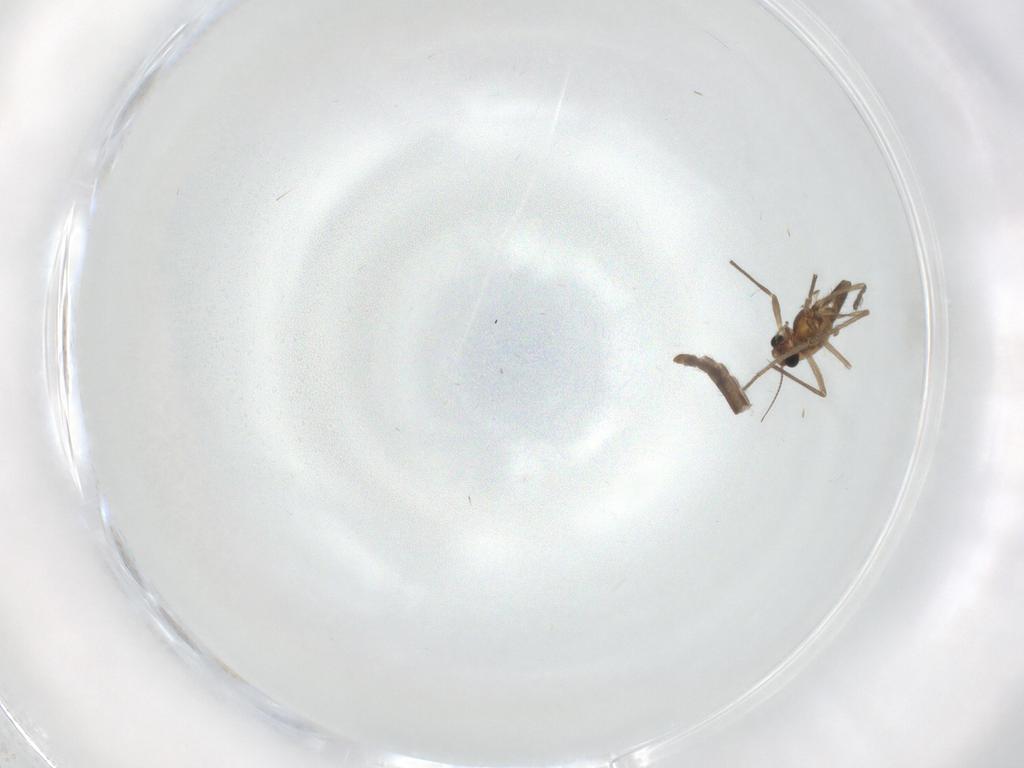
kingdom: Animalia
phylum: Arthropoda
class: Insecta
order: Diptera
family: Chironomidae
